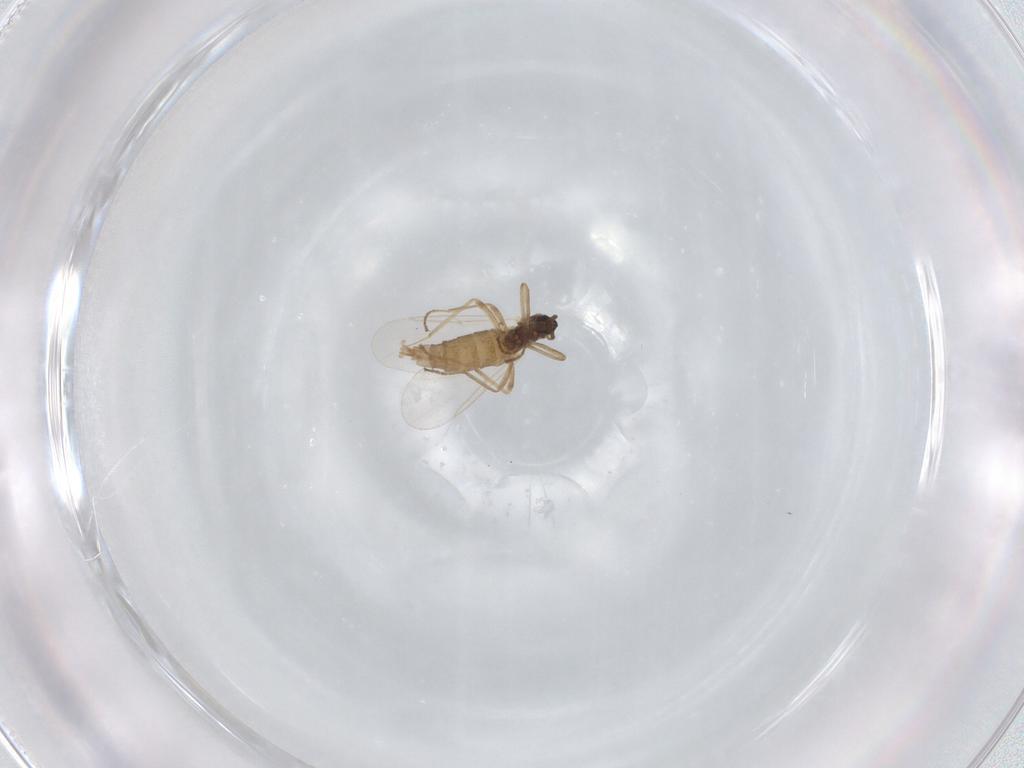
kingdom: Animalia
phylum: Arthropoda
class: Insecta
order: Diptera
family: Cecidomyiidae
